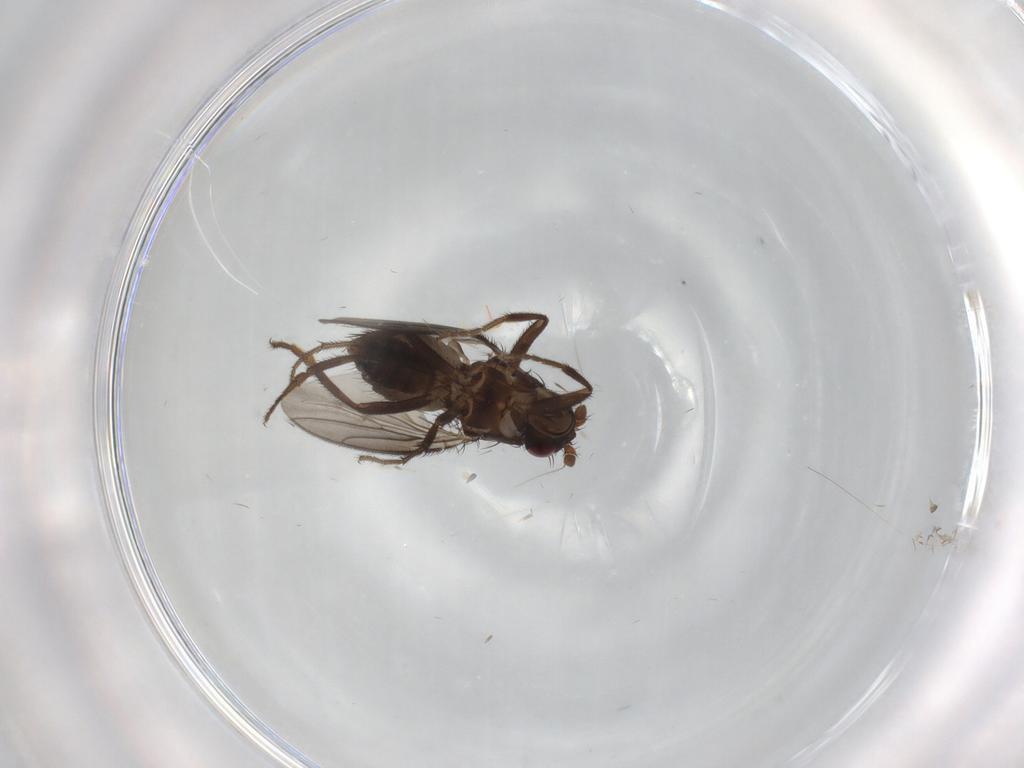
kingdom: Animalia
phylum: Arthropoda
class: Insecta
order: Diptera
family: Sphaeroceridae
